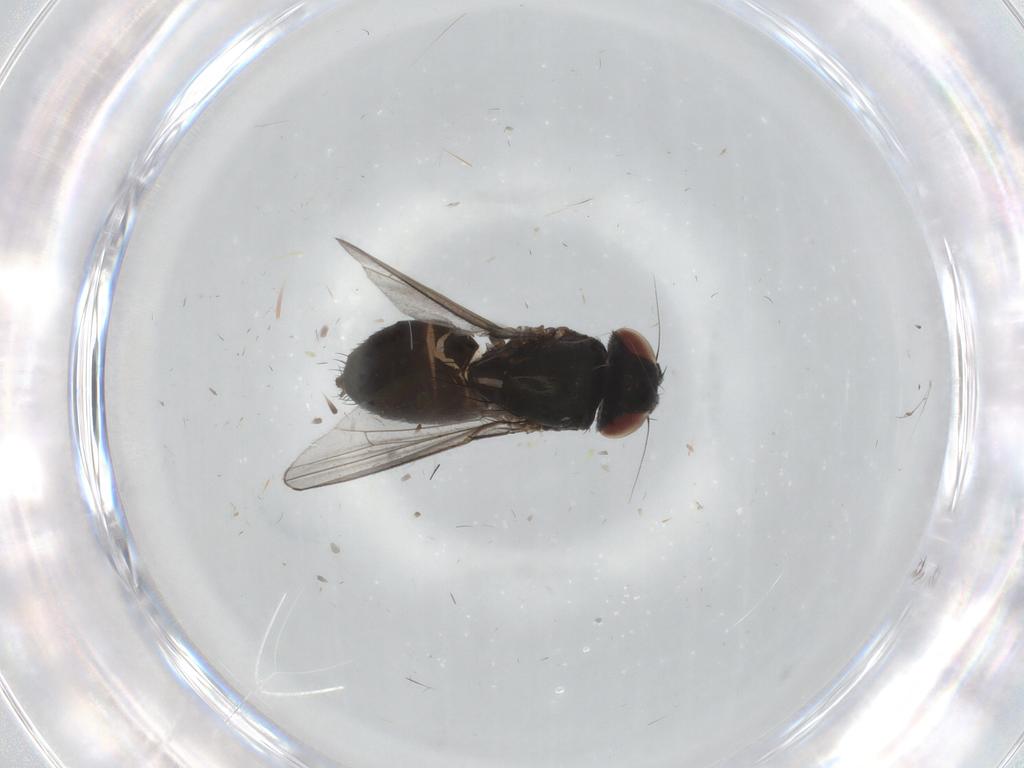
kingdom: Animalia
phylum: Arthropoda
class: Insecta
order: Diptera
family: Milichiidae
